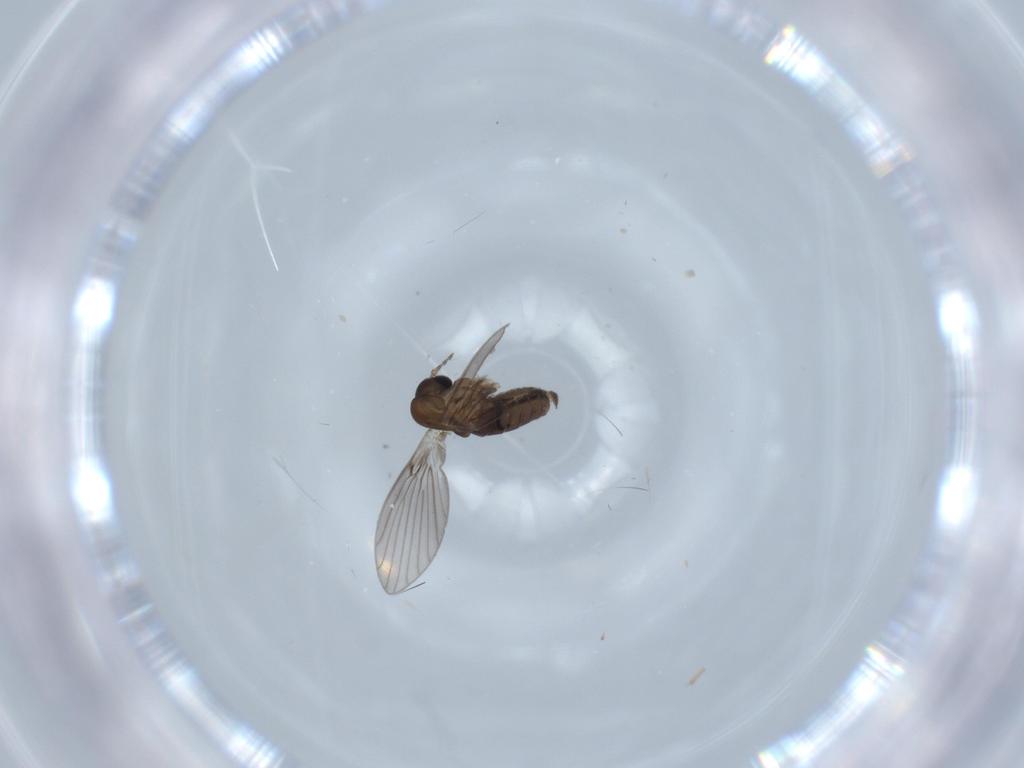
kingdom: Animalia
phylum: Arthropoda
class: Insecta
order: Diptera
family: Psychodidae
